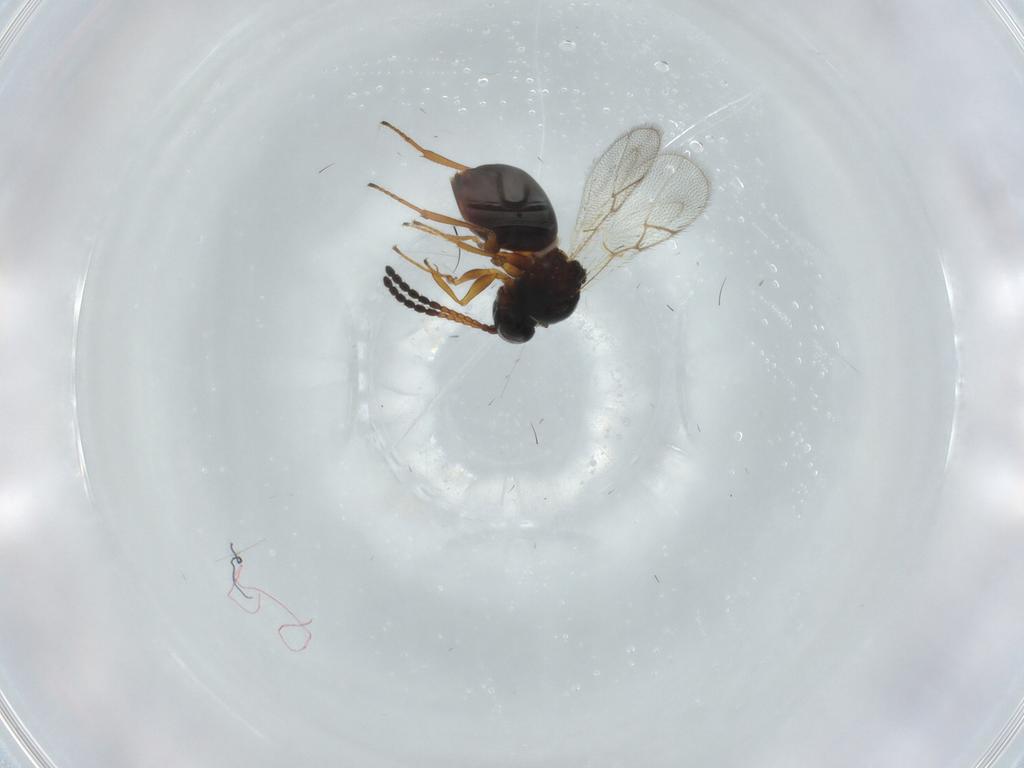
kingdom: Animalia
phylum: Arthropoda
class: Insecta
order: Hymenoptera
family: Figitidae
